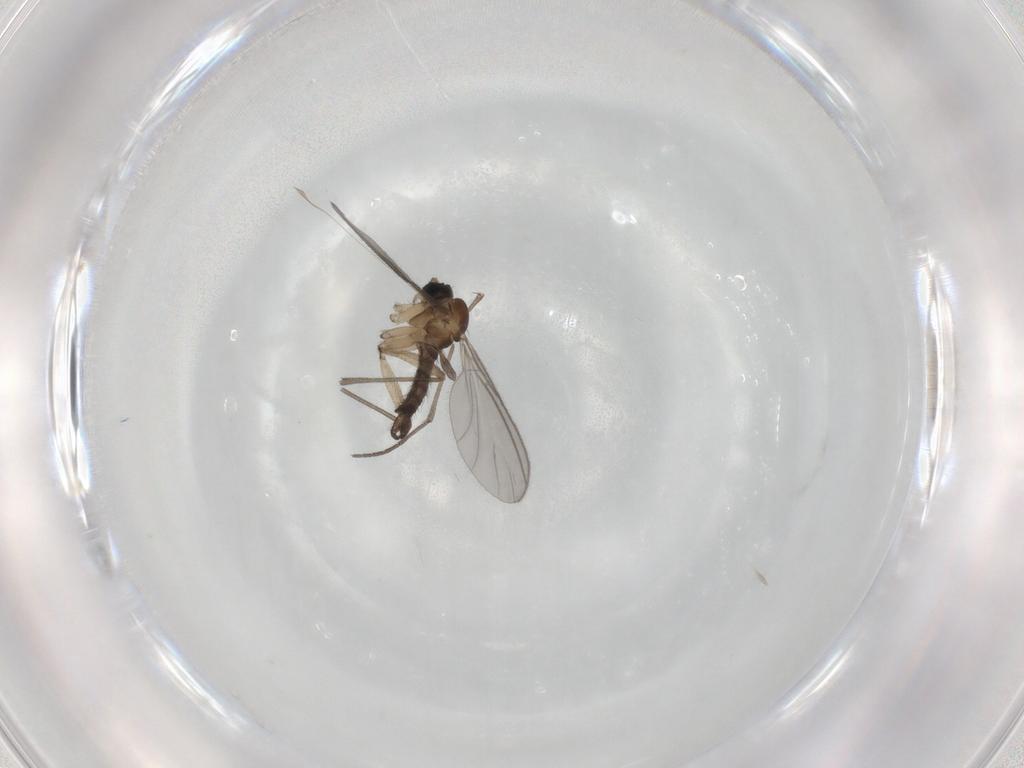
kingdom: Animalia
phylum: Arthropoda
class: Insecta
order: Diptera
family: Sciaridae
